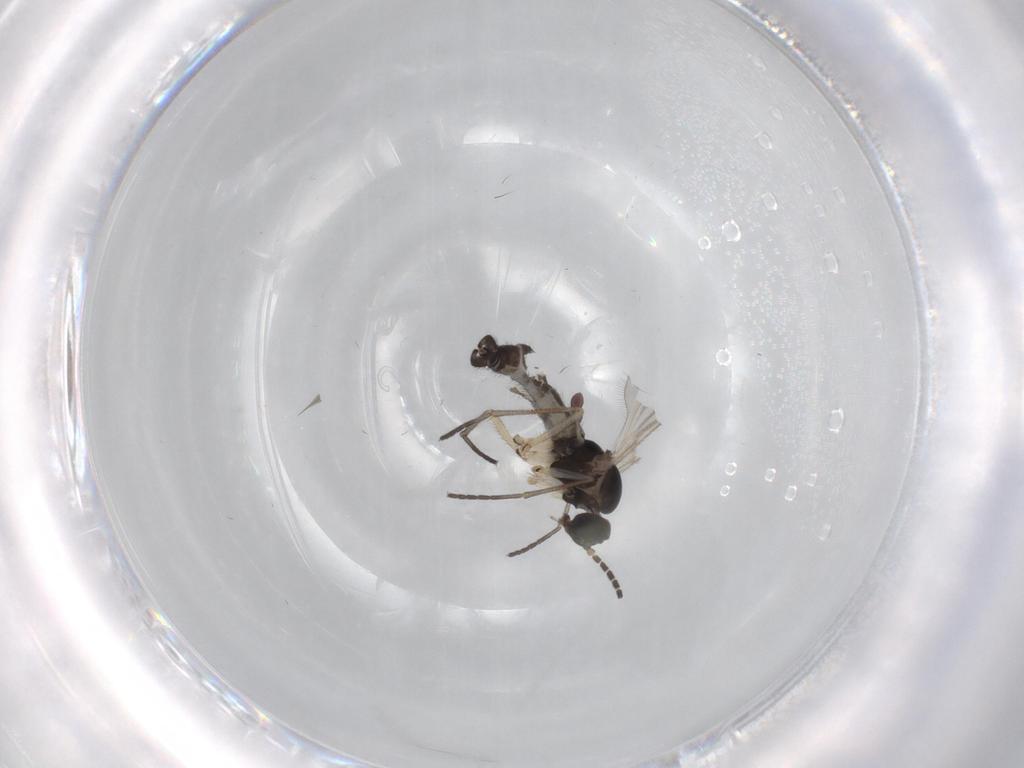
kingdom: Animalia
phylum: Arthropoda
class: Insecta
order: Diptera
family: Sciaridae
